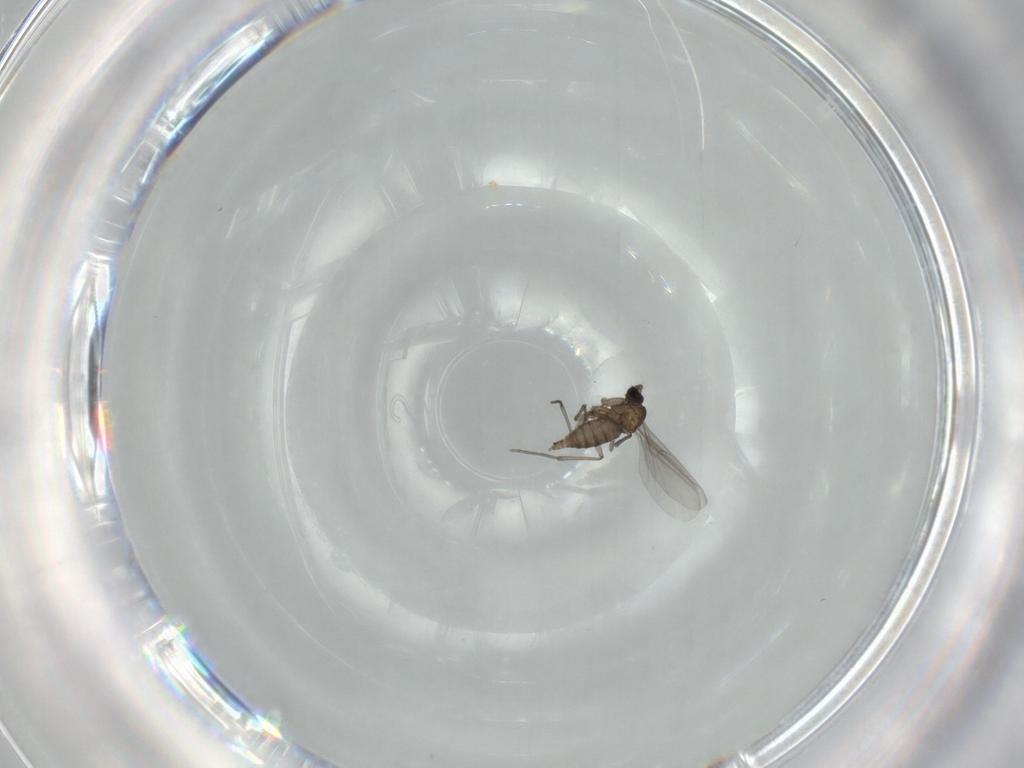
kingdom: Animalia
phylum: Arthropoda
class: Insecta
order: Diptera
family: Sciaridae
